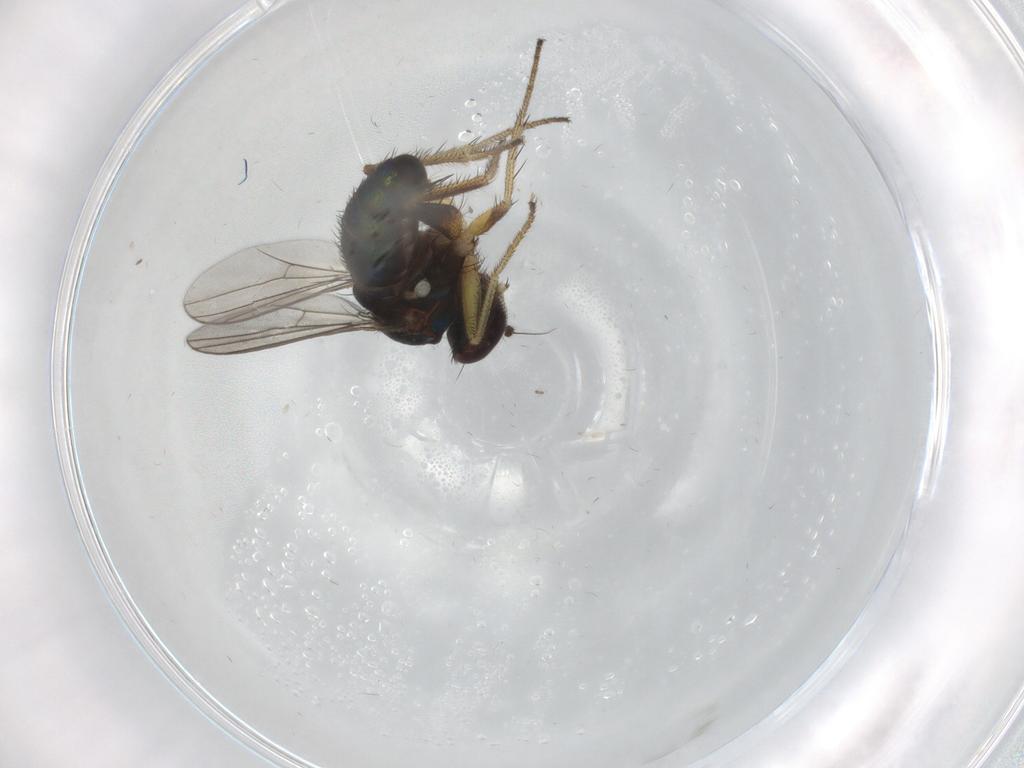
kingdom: Animalia
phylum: Arthropoda
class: Insecta
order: Diptera
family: Dolichopodidae
